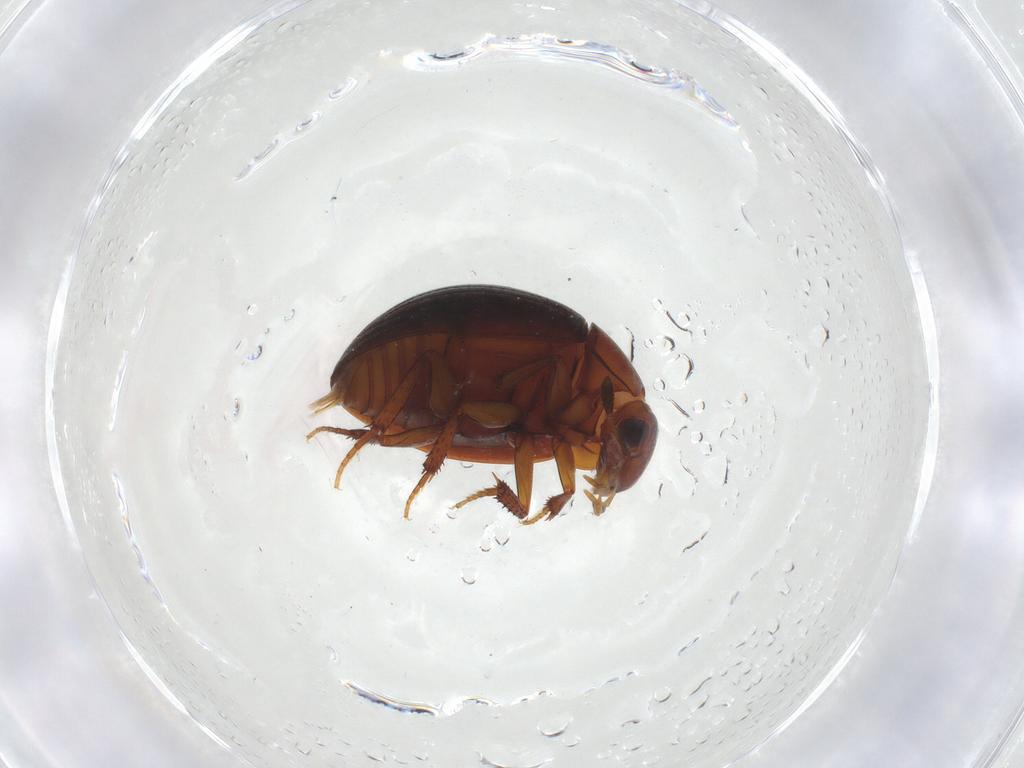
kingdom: Animalia
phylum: Arthropoda
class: Insecta
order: Coleoptera
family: Hydrophilidae
